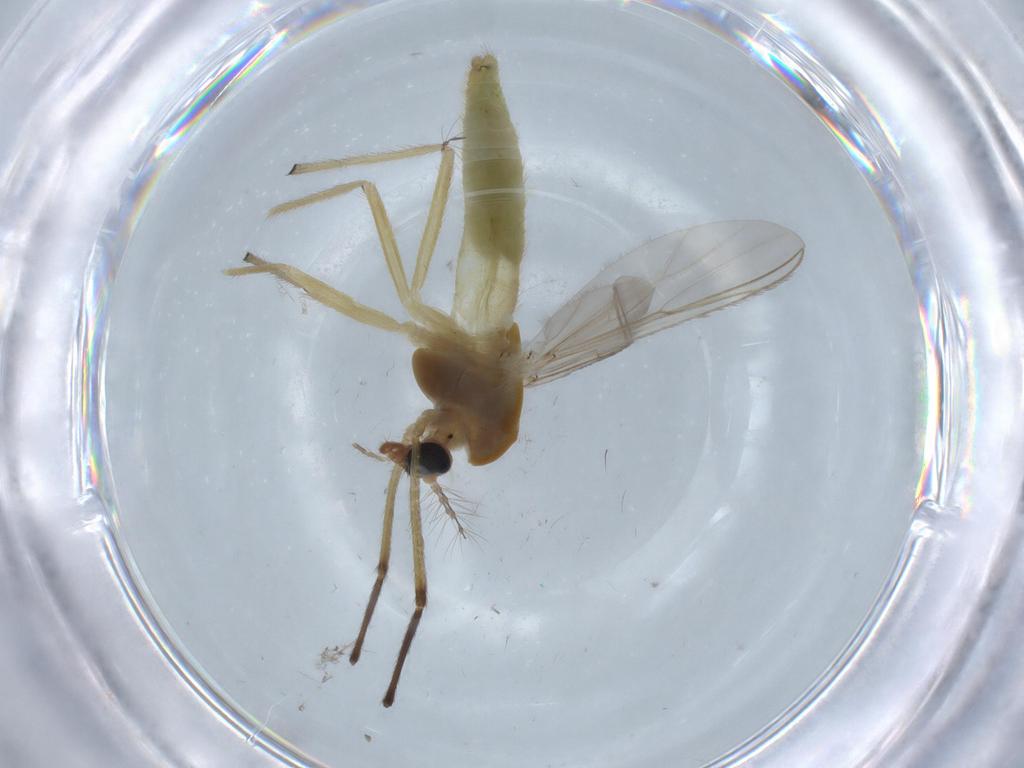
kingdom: Animalia
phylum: Arthropoda
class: Insecta
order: Diptera
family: Chironomidae
